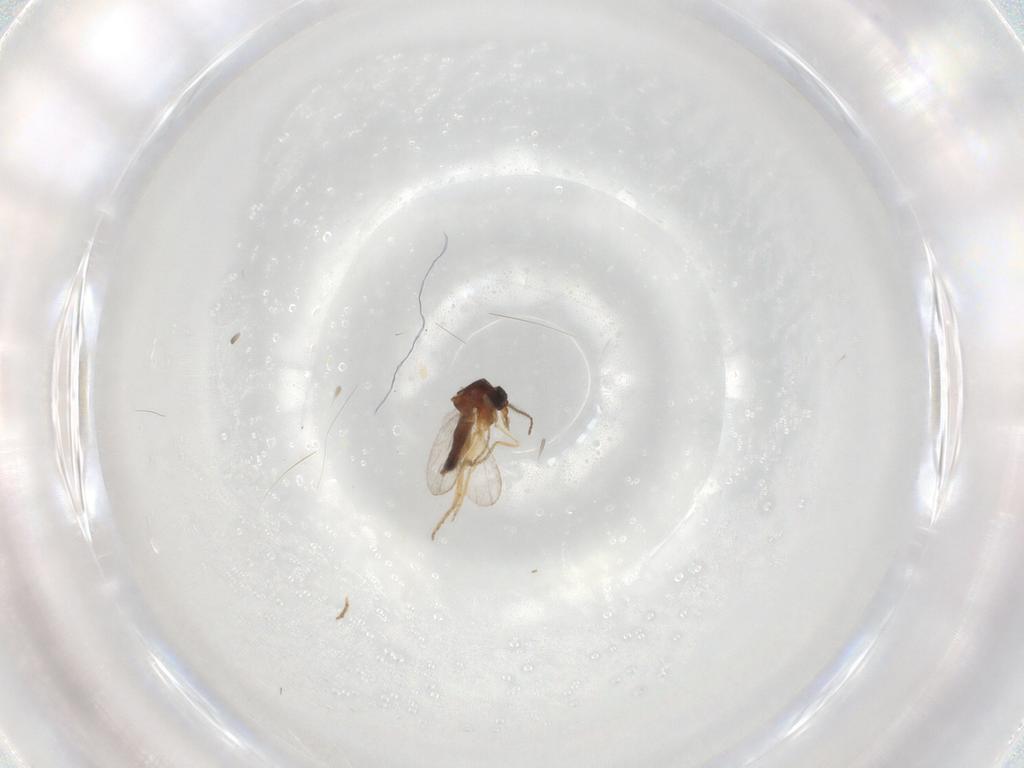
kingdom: Animalia
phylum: Arthropoda
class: Insecta
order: Diptera
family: Ceratopogonidae
